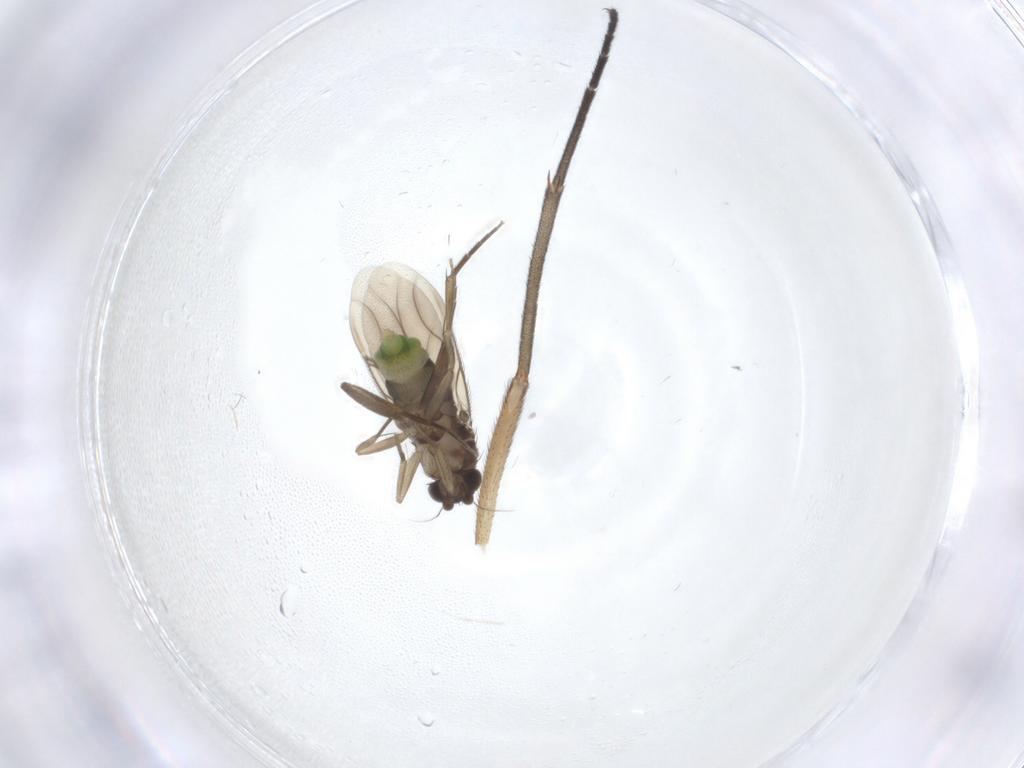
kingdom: Animalia
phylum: Arthropoda
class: Insecta
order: Diptera
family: Sciaridae
